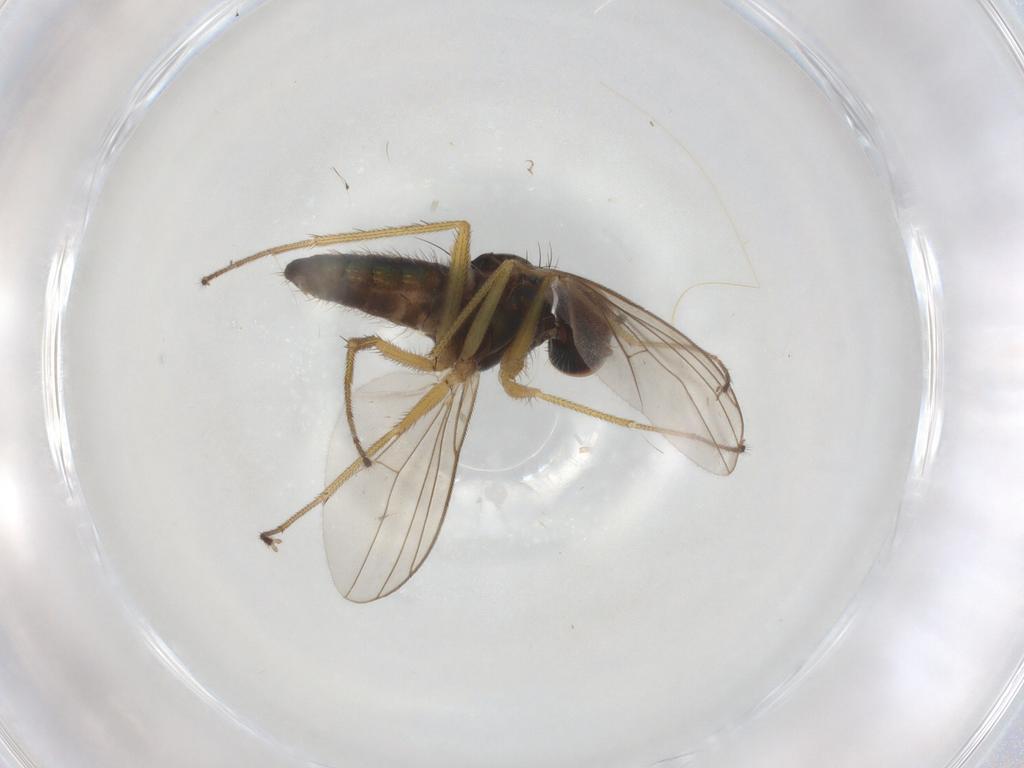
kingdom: Animalia
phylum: Arthropoda
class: Insecta
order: Diptera
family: Dolichopodidae
